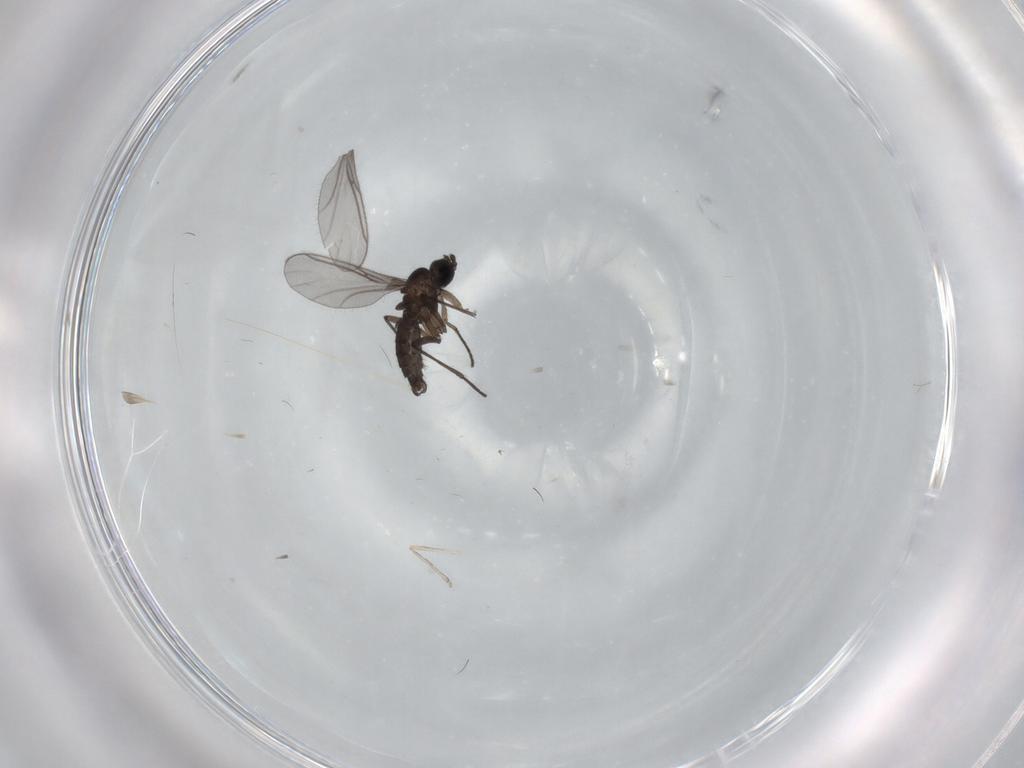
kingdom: Animalia
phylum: Arthropoda
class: Insecta
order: Diptera
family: Cecidomyiidae
